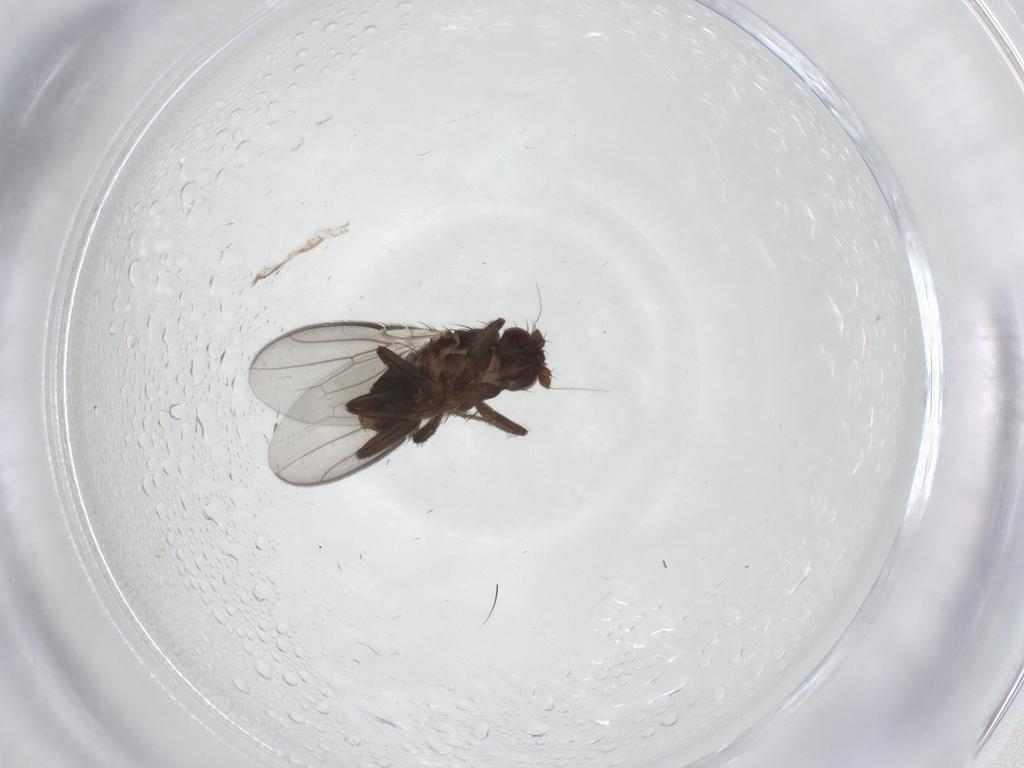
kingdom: Animalia
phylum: Arthropoda
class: Insecta
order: Diptera
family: Sphaeroceridae
